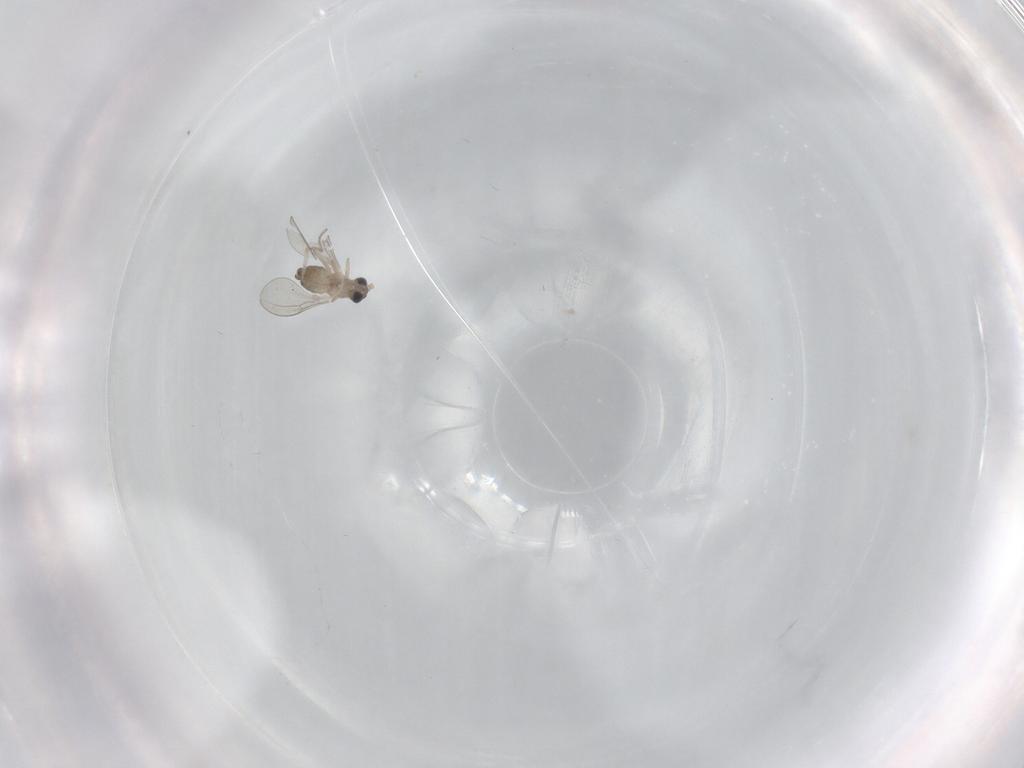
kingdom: Animalia
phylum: Arthropoda
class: Insecta
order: Diptera
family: Cecidomyiidae
